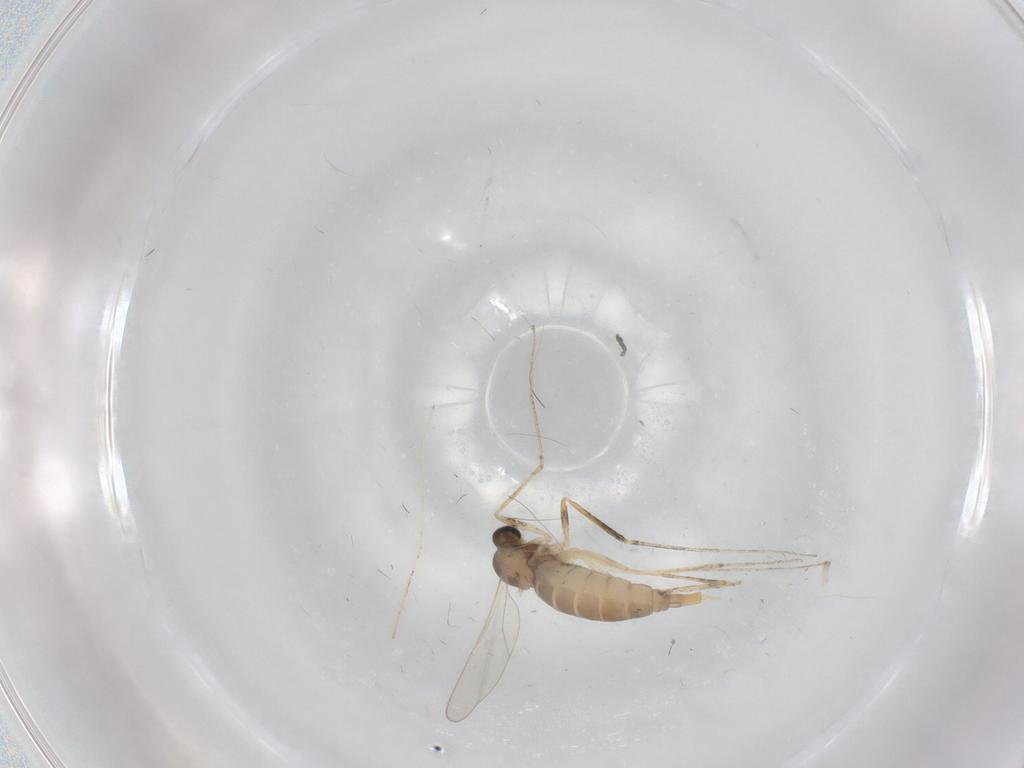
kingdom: Animalia
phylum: Arthropoda
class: Insecta
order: Diptera
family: Cecidomyiidae
